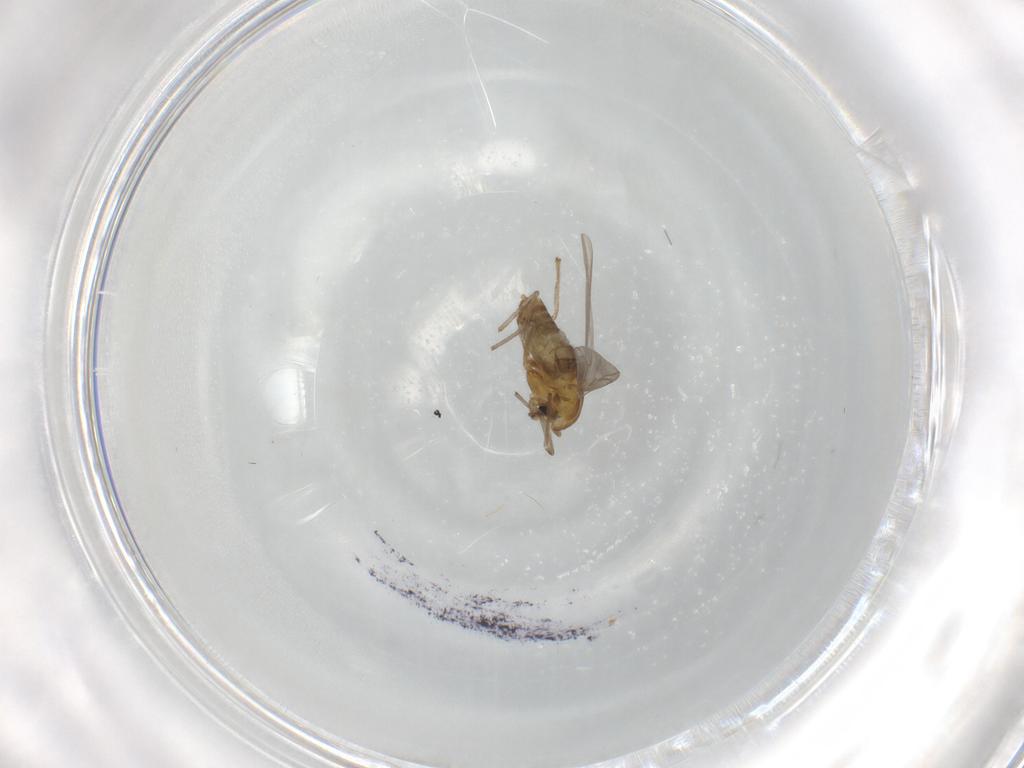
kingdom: Animalia
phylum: Arthropoda
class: Insecta
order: Diptera
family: Chironomidae
